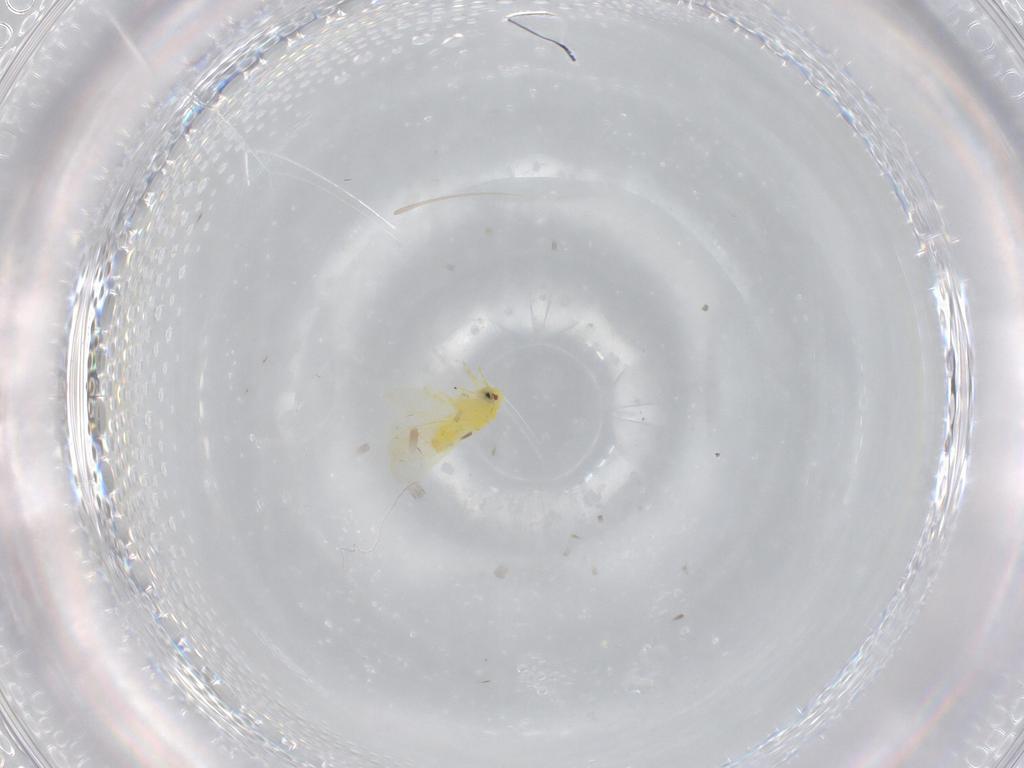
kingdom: Animalia
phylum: Arthropoda
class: Insecta
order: Hemiptera
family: Aleyrodidae
